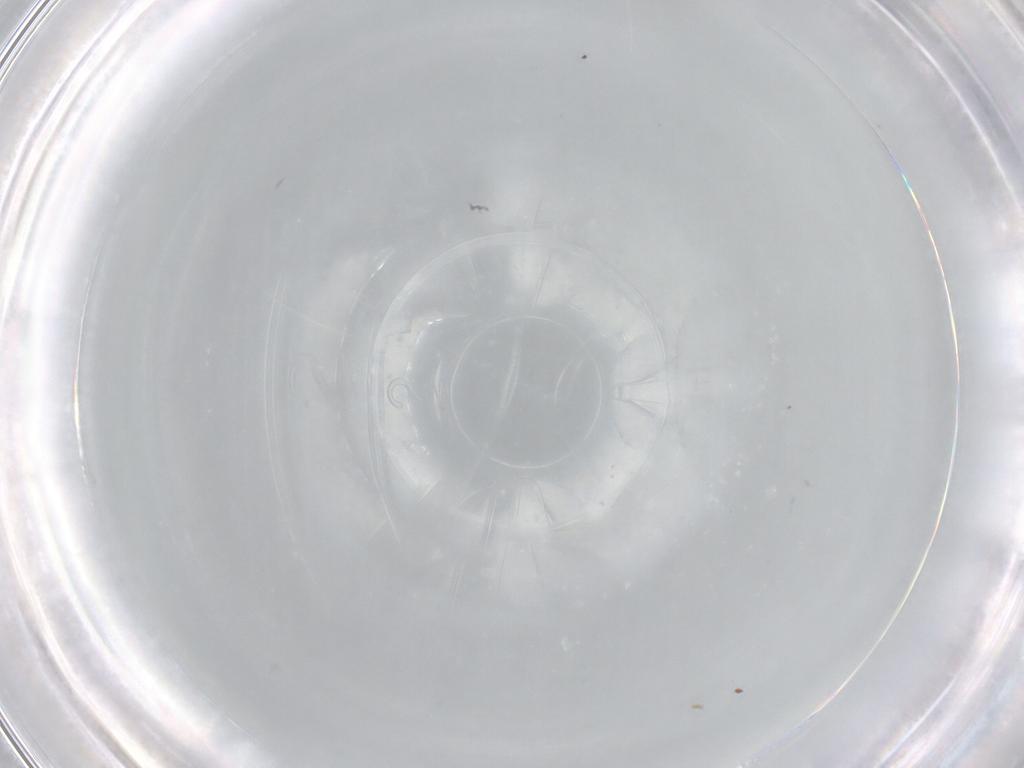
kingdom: Animalia
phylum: Arthropoda
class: Insecta
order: Diptera
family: Cecidomyiidae
